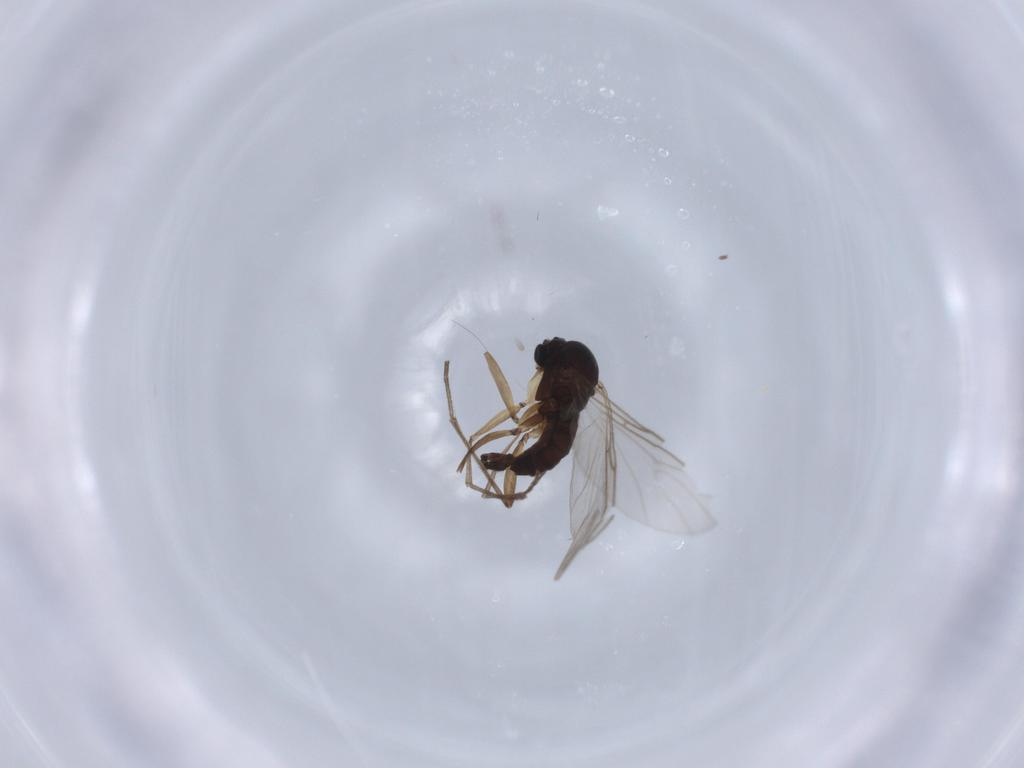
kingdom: Animalia
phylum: Arthropoda
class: Insecta
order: Diptera
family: Sciaridae
